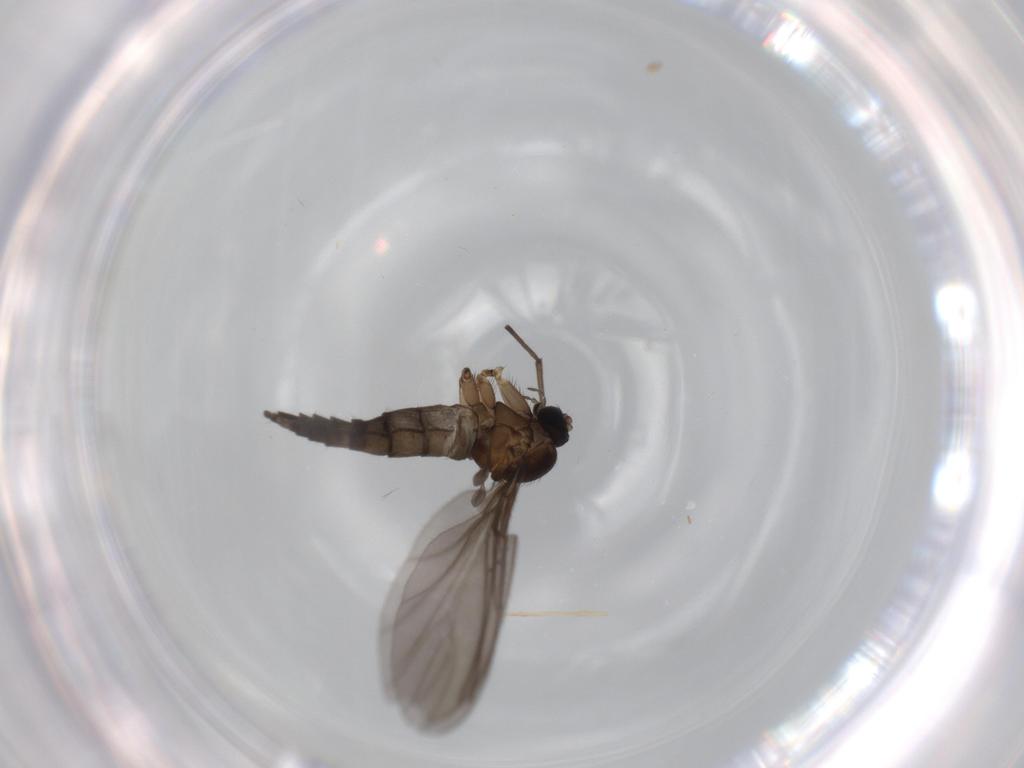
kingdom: Animalia
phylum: Arthropoda
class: Insecta
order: Diptera
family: Sciaridae
